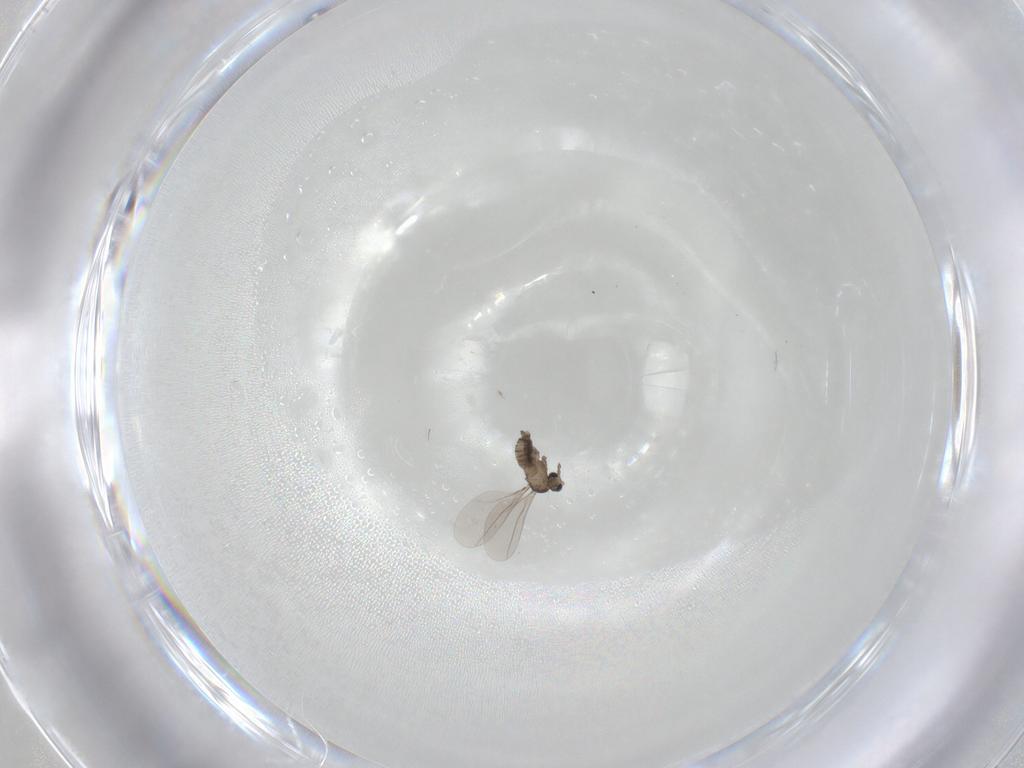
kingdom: Animalia
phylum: Arthropoda
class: Insecta
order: Diptera
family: Cecidomyiidae
